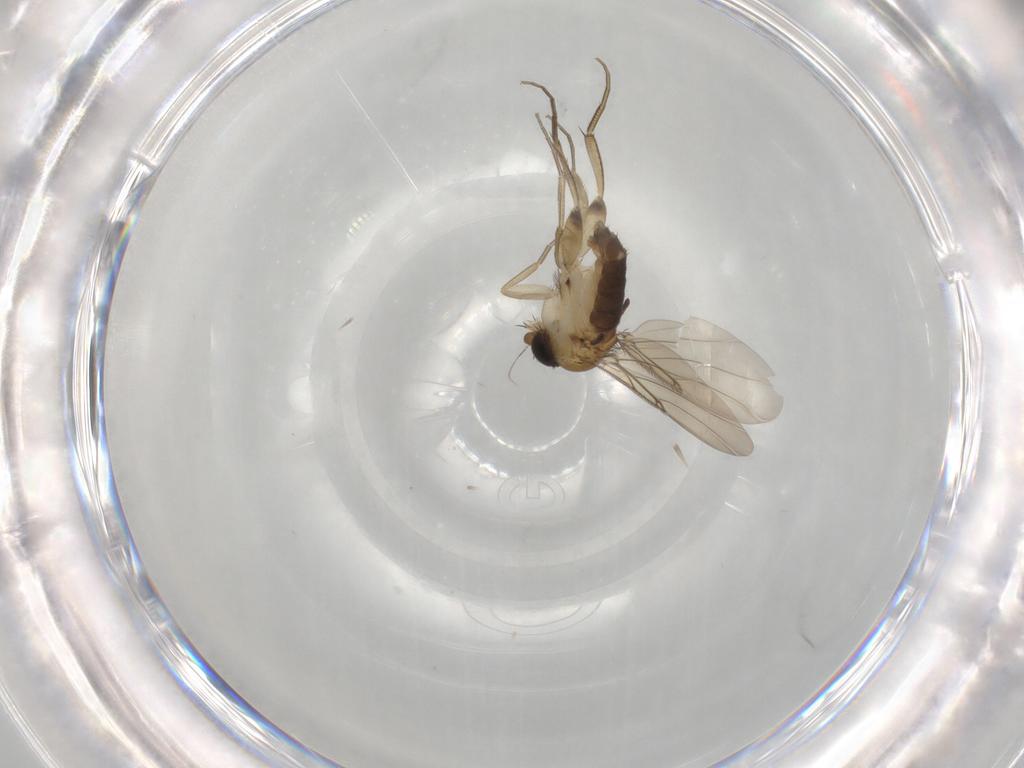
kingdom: Animalia
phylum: Arthropoda
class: Insecta
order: Diptera
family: Phoridae
